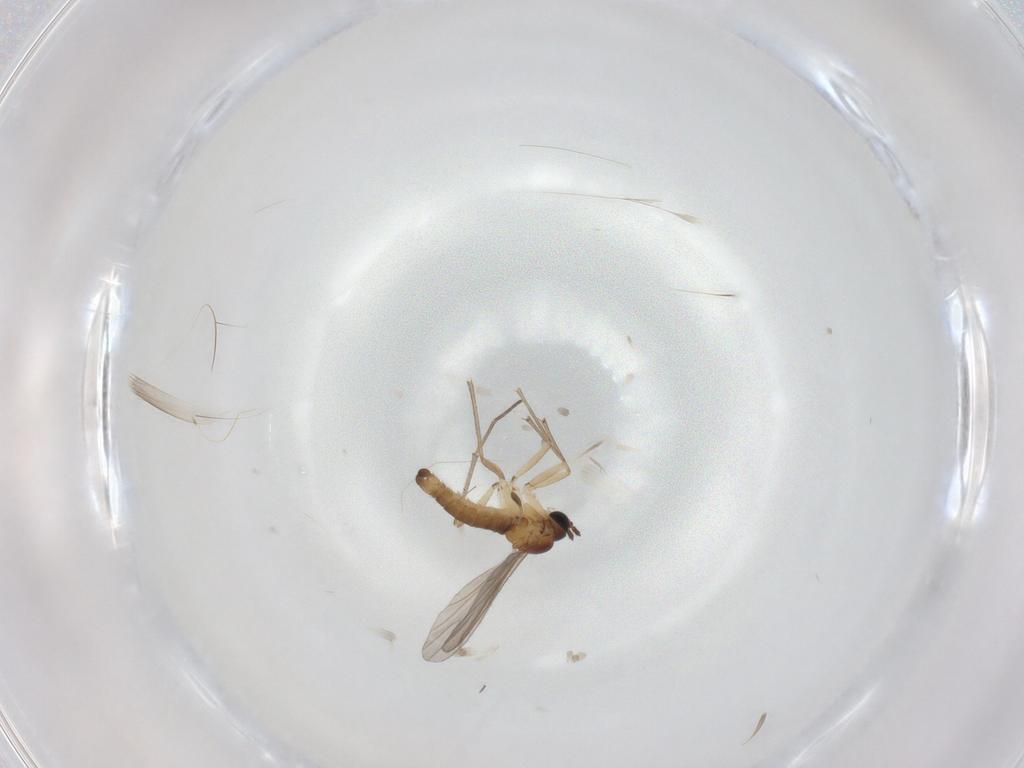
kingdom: Animalia
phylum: Arthropoda
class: Insecta
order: Diptera
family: Sciaridae
